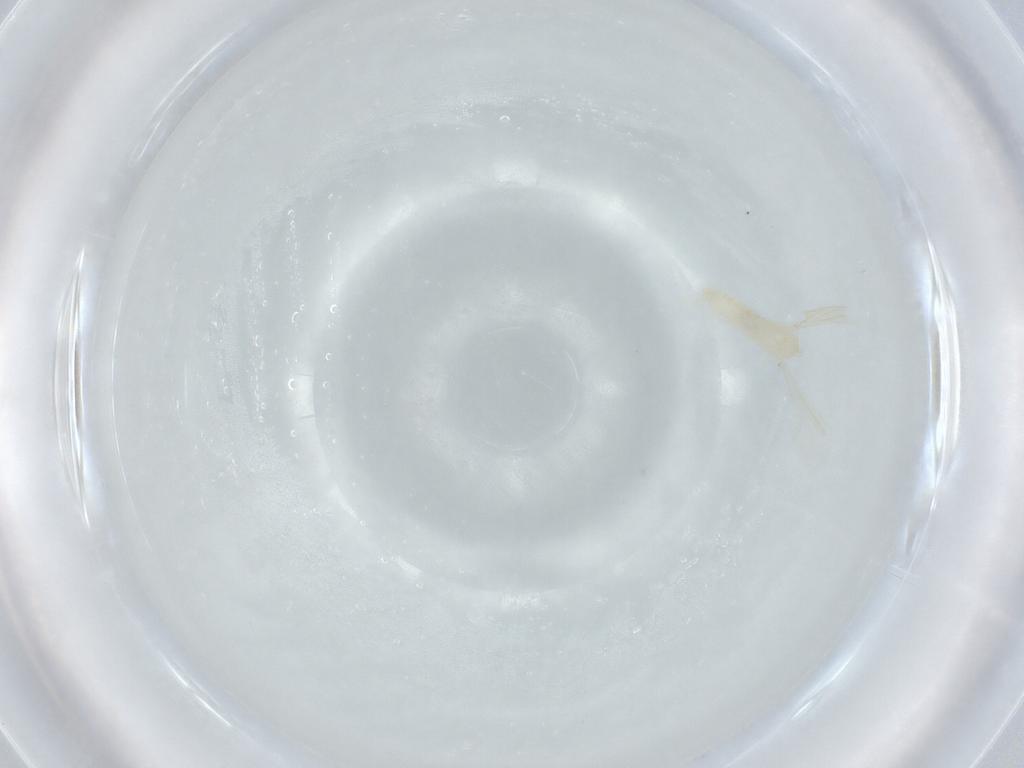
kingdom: Animalia
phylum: Arthropoda
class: Insecta
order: Diptera
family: Cecidomyiidae
